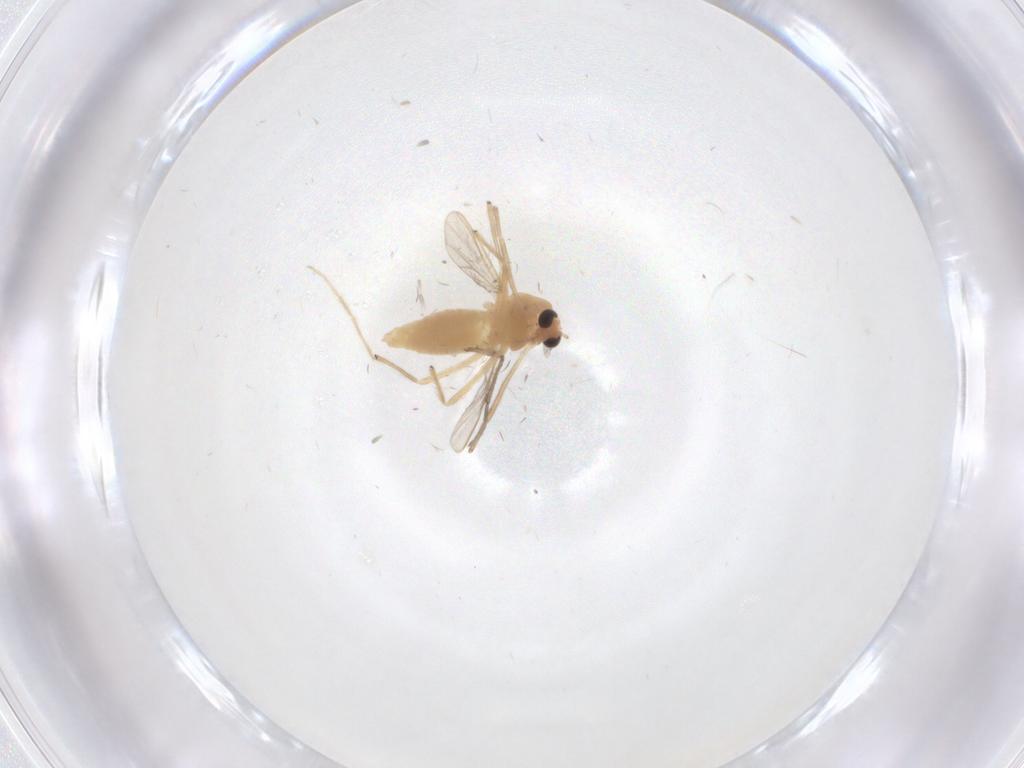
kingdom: Animalia
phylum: Arthropoda
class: Insecta
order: Diptera
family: Chironomidae
